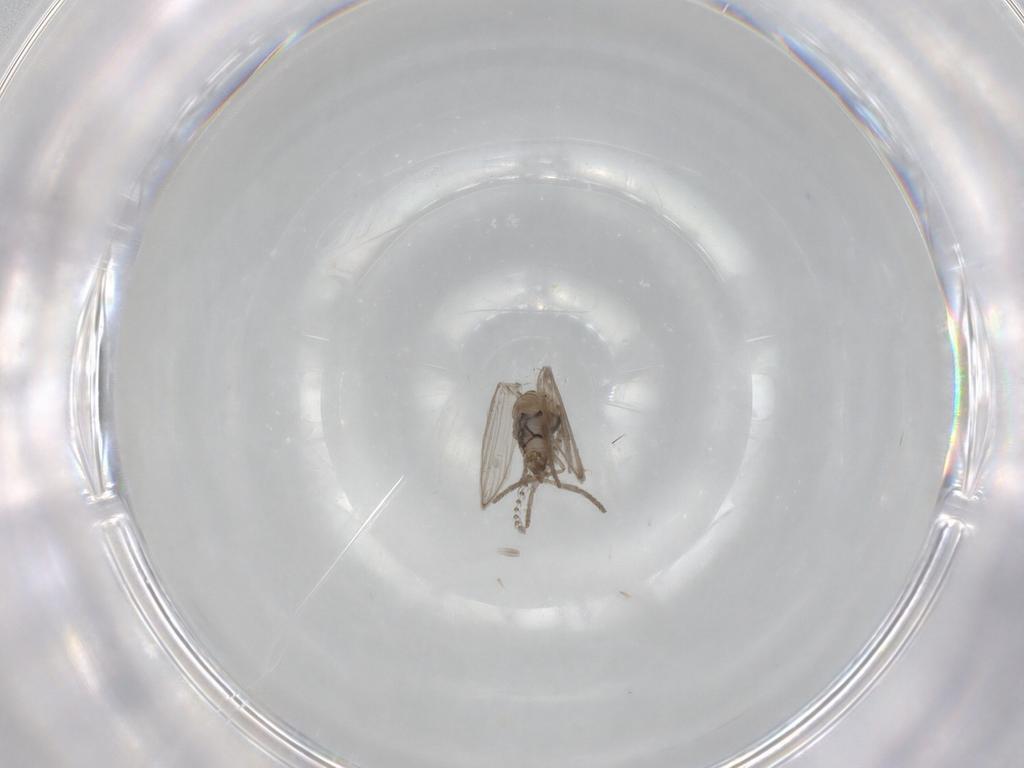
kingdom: Animalia
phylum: Arthropoda
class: Insecta
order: Diptera
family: Psychodidae
